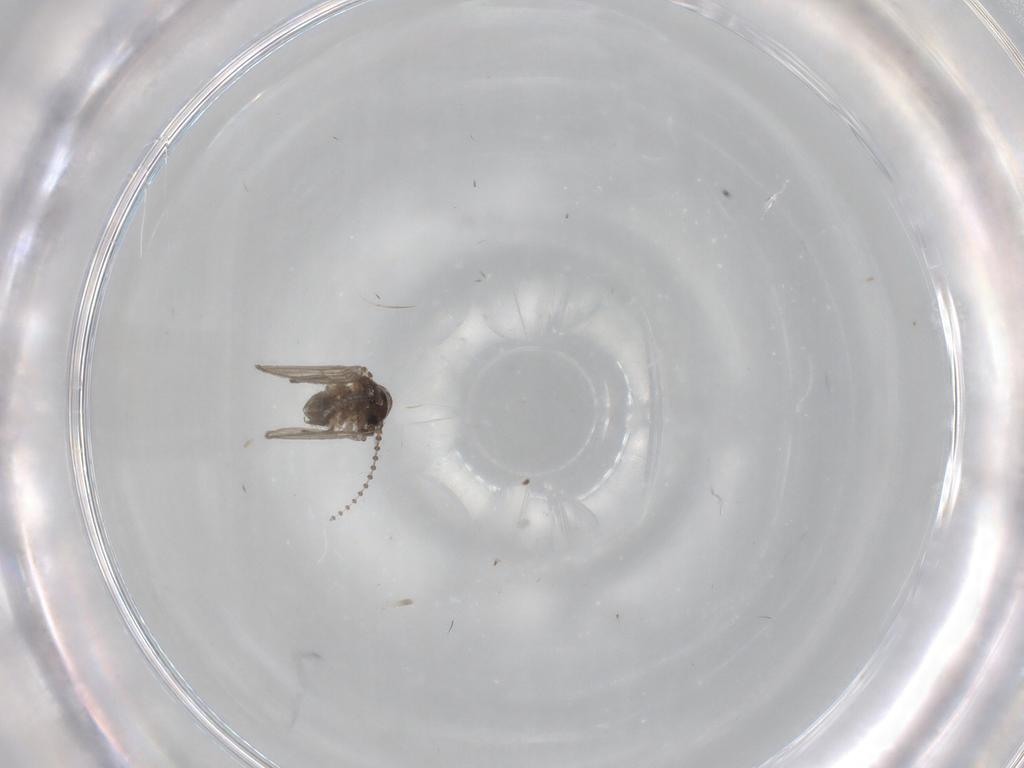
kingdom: Animalia
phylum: Arthropoda
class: Insecta
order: Diptera
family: Psychodidae
